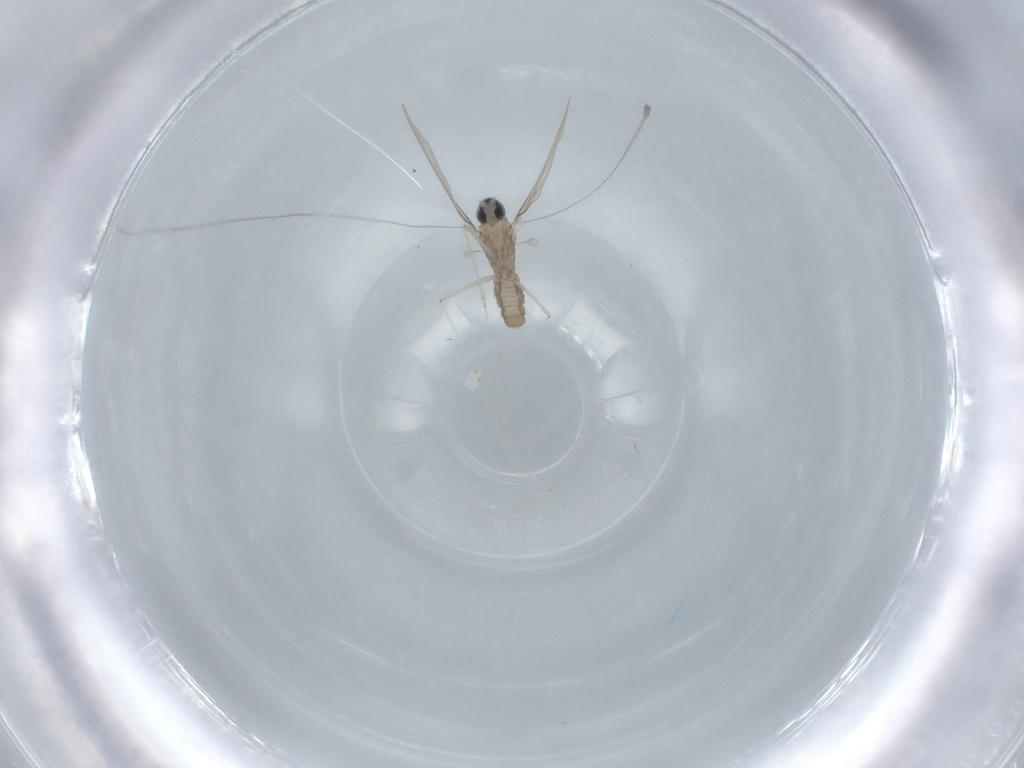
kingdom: Animalia
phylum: Arthropoda
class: Insecta
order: Diptera
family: Cecidomyiidae
